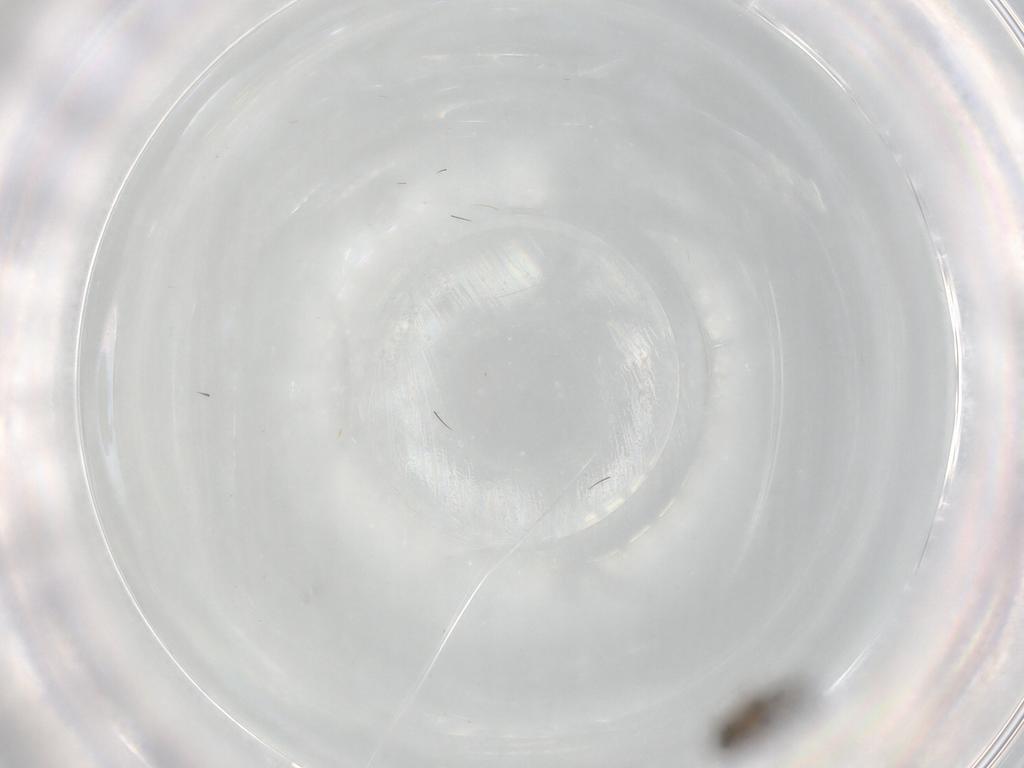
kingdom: Animalia
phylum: Arthropoda
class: Insecta
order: Diptera
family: Phoridae
